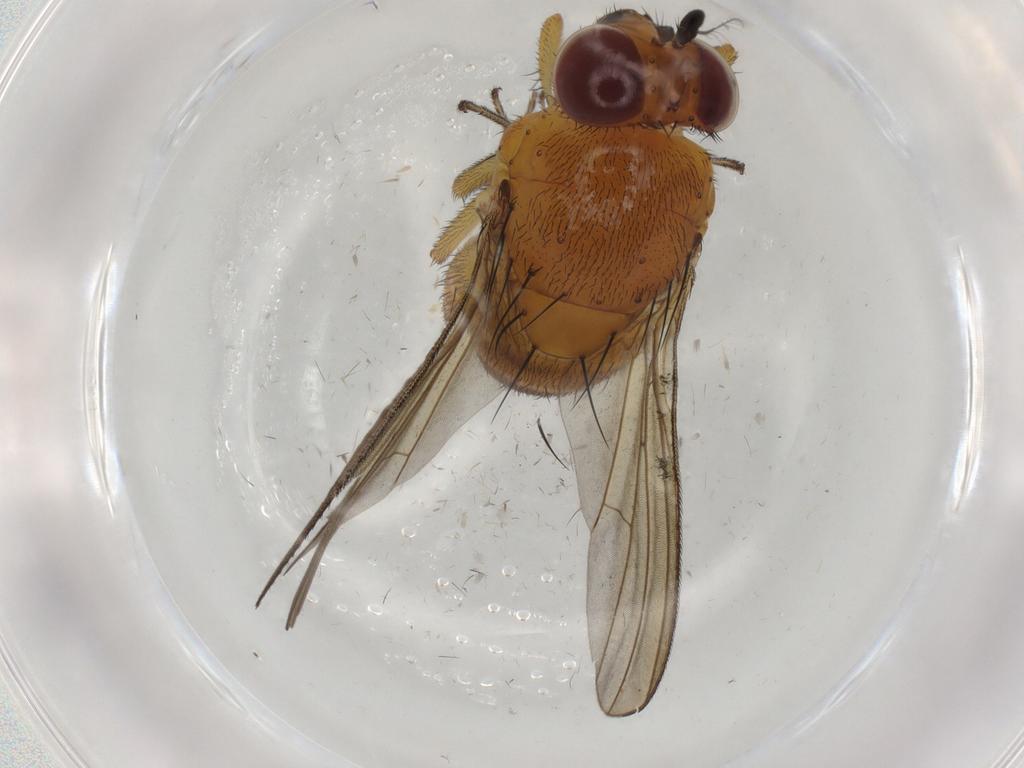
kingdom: Animalia
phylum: Arthropoda
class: Insecta
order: Diptera
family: Lauxaniidae
